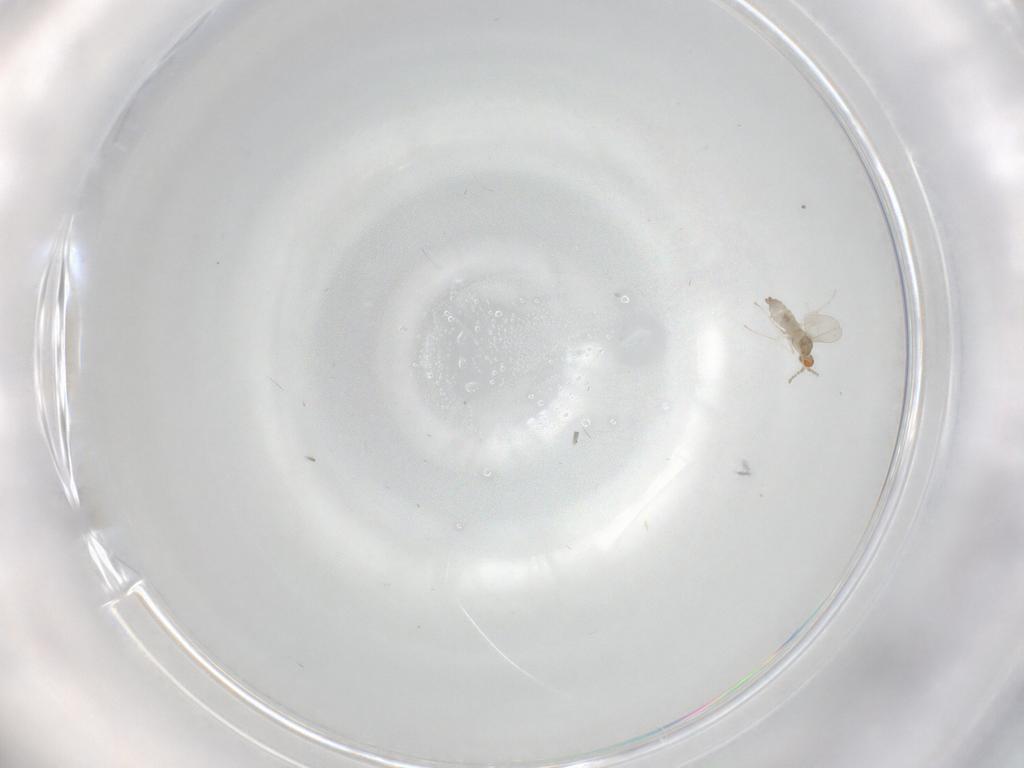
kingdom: Animalia
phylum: Arthropoda
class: Insecta
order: Diptera
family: Cecidomyiidae
